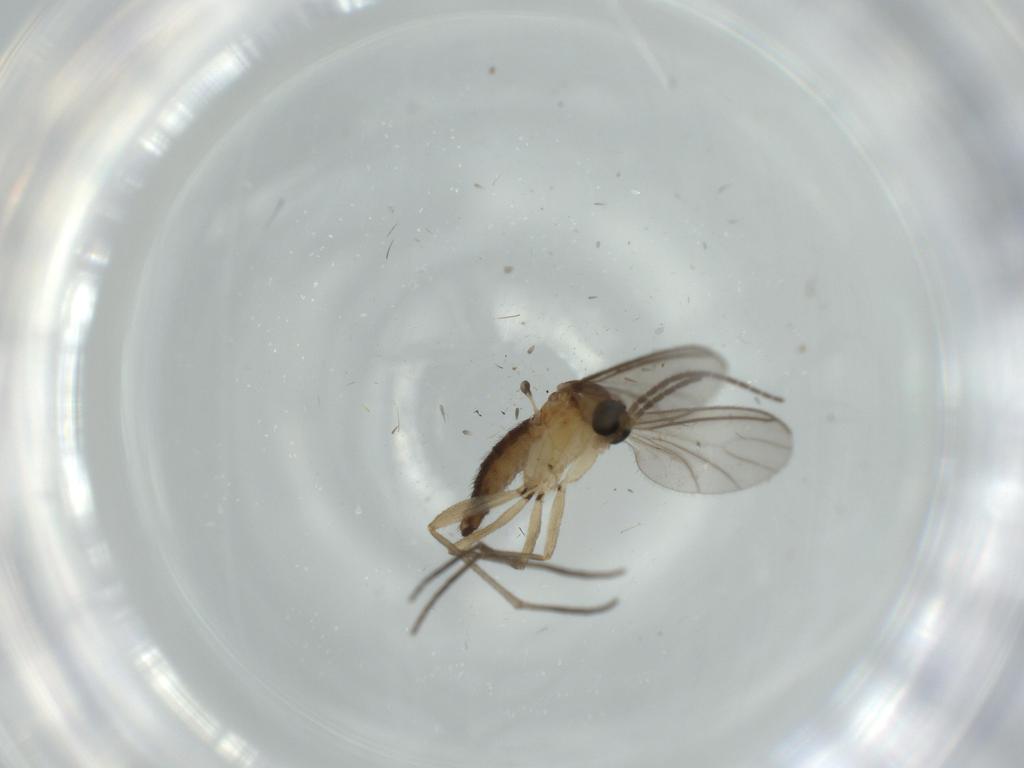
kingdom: Animalia
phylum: Arthropoda
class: Insecta
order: Diptera
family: Sciaridae
